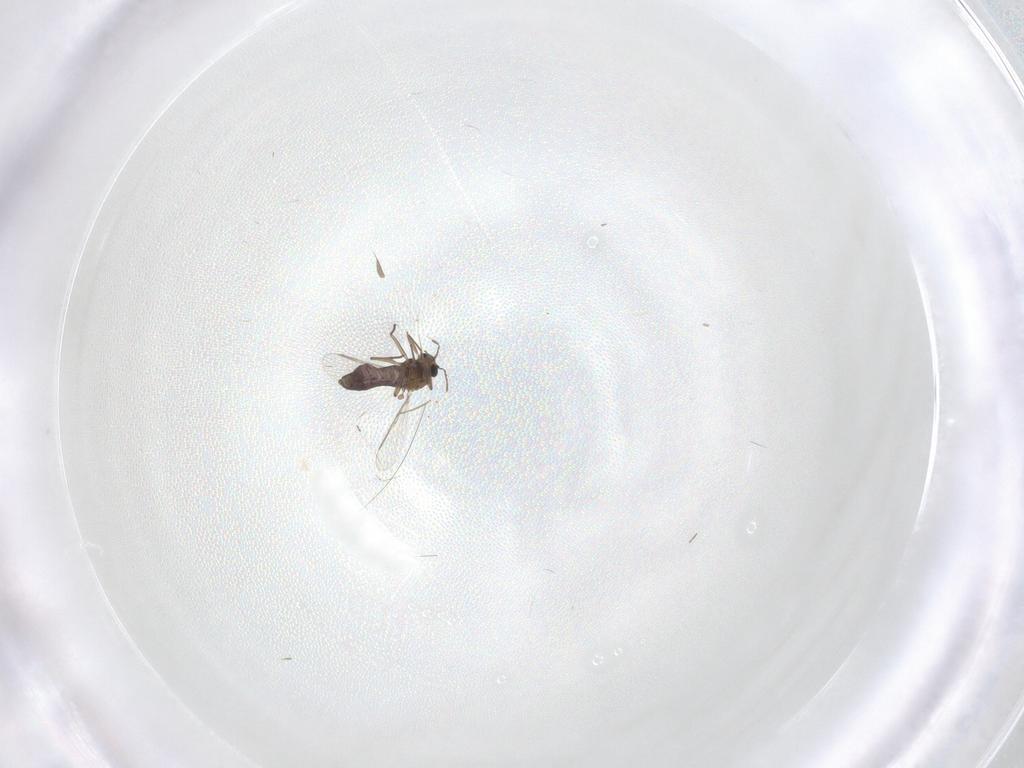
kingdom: Animalia
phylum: Arthropoda
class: Insecta
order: Diptera
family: Chironomidae
